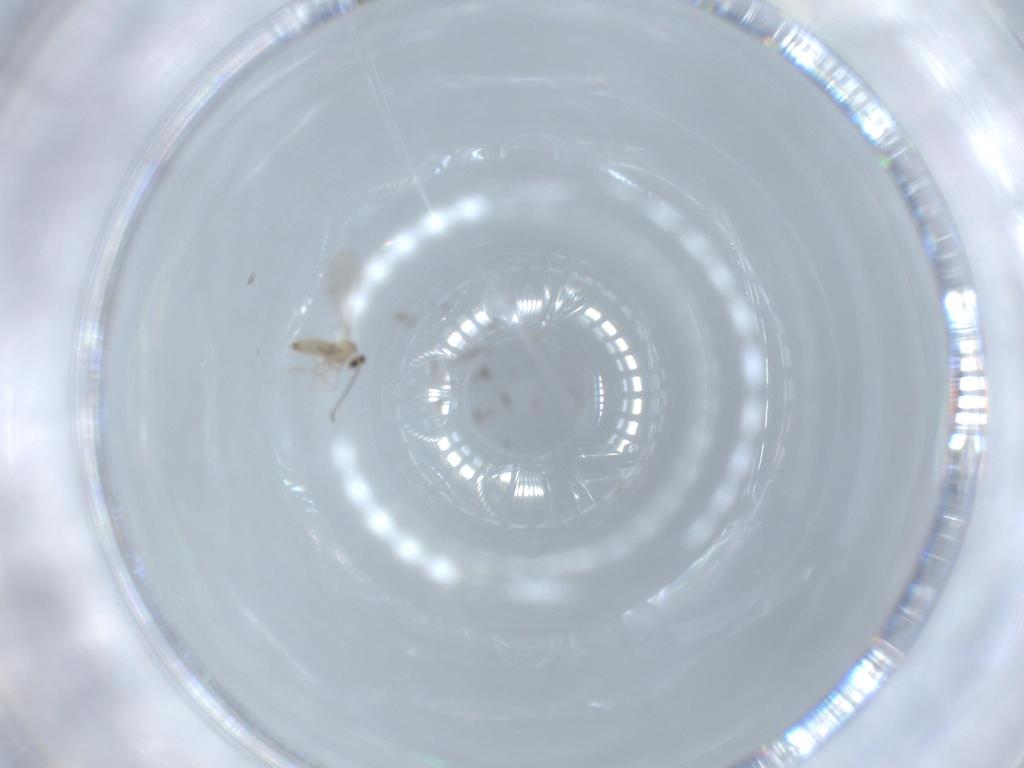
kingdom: Animalia
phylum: Arthropoda
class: Insecta
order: Diptera
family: Cecidomyiidae
